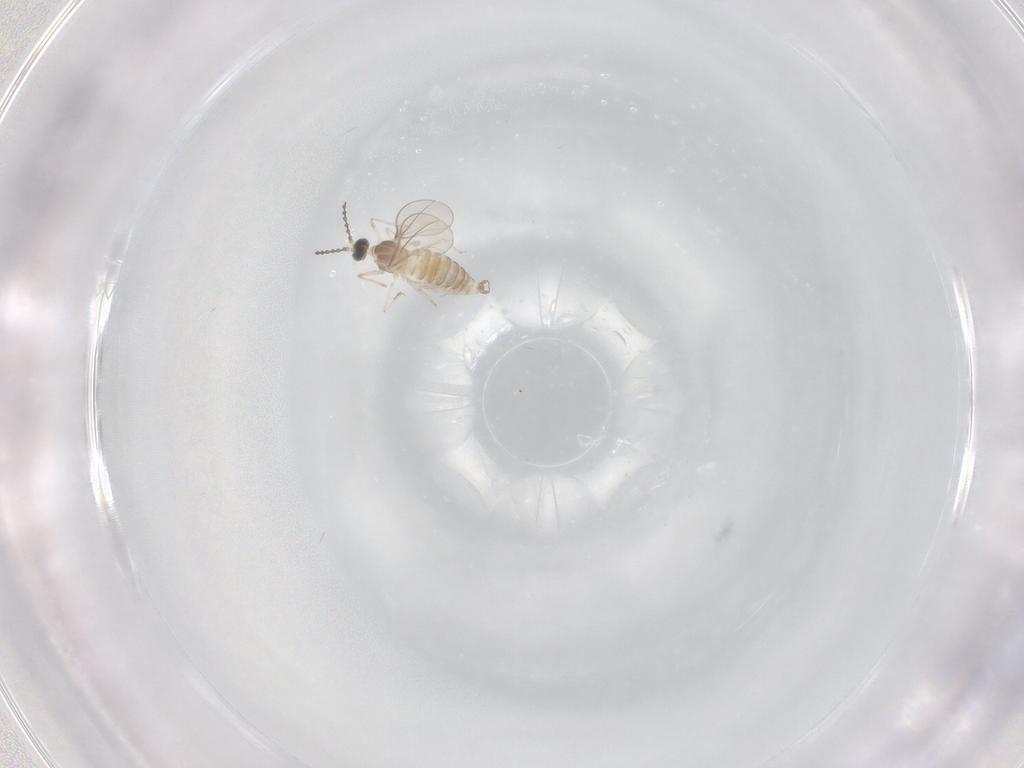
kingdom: Animalia
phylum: Arthropoda
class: Insecta
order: Diptera
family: Cecidomyiidae
